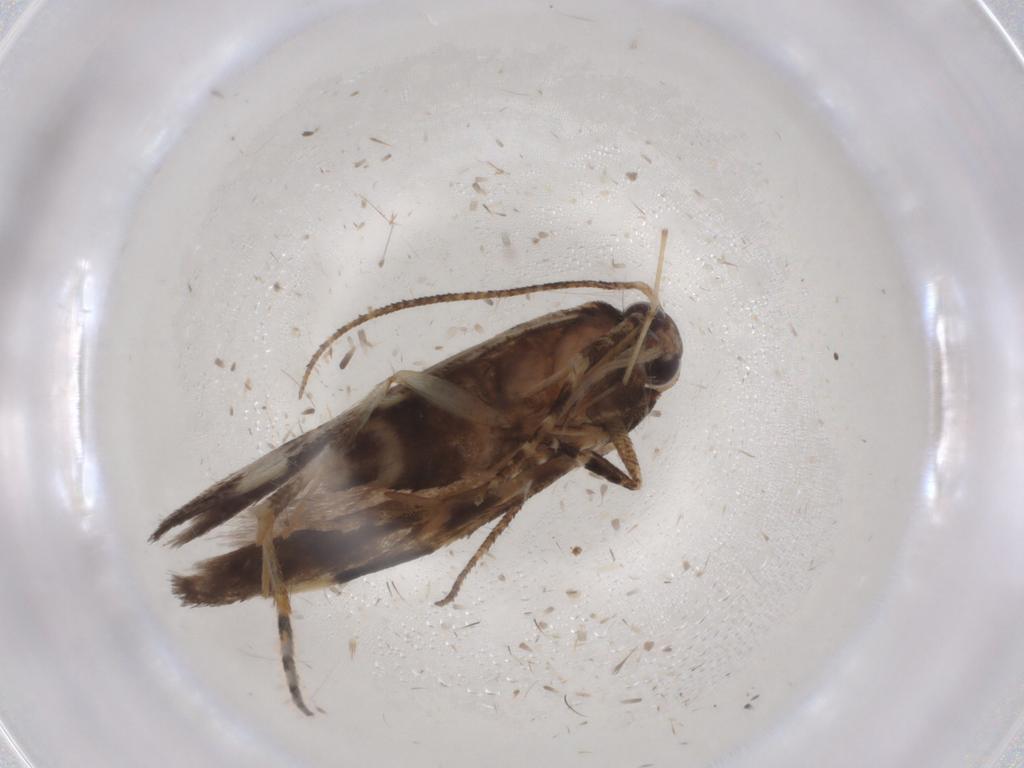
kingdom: Animalia
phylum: Arthropoda
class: Insecta
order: Lepidoptera
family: Gelechiidae
